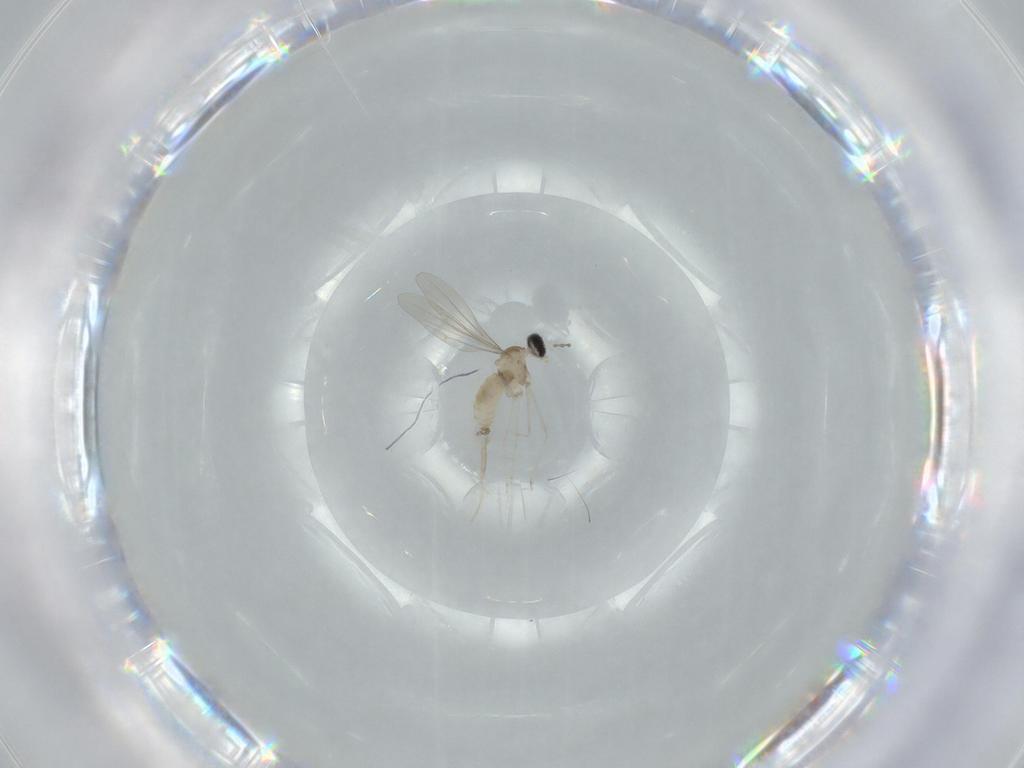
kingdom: Animalia
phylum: Arthropoda
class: Insecta
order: Diptera
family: Cecidomyiidae
